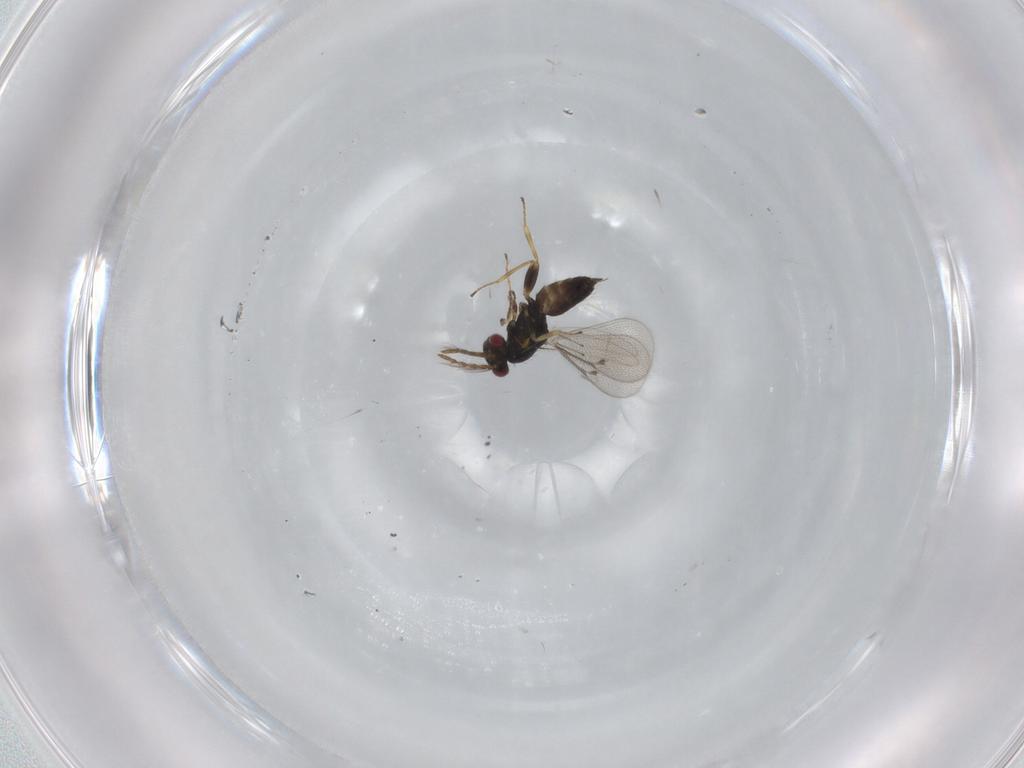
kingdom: Animalia
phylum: Arthropoda
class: Insecta
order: Hymenoptera
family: Eulophidae
